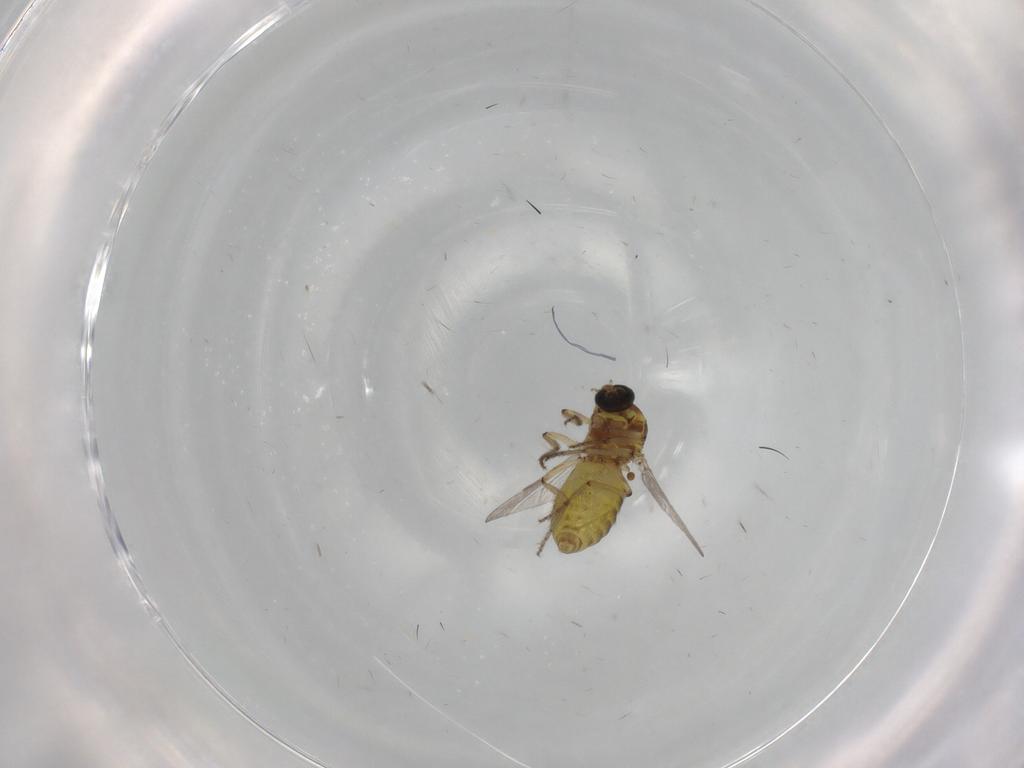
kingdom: Animalia
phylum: Arthropoda
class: Insecta
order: Diptera
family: Ceratopogonidae
